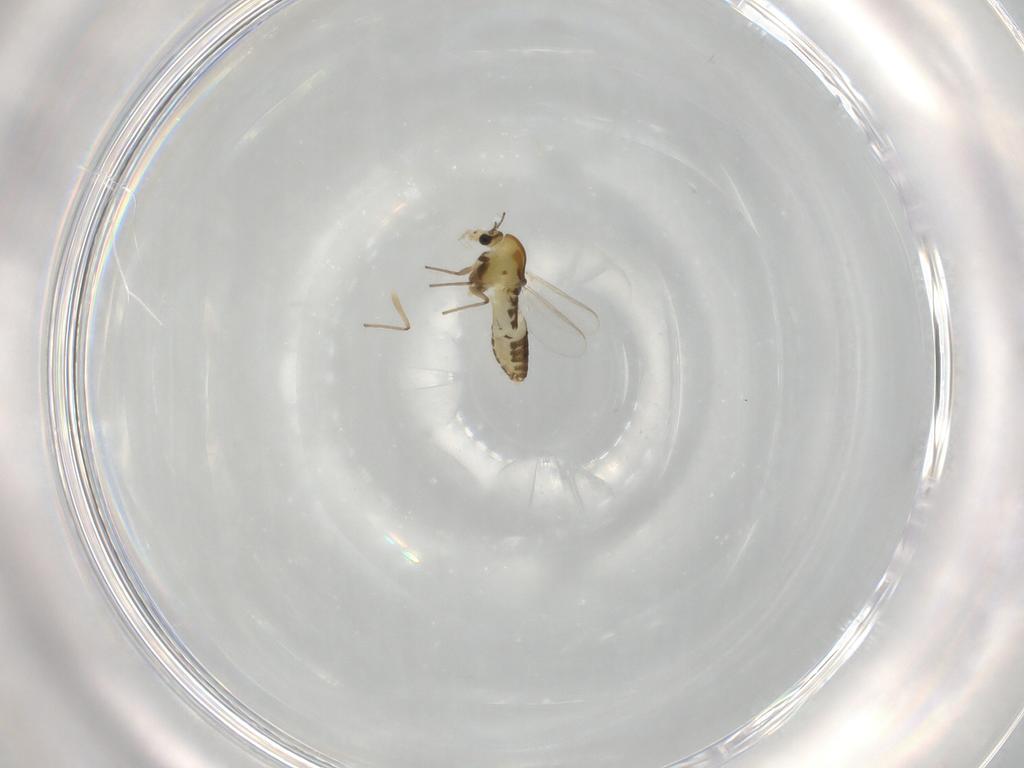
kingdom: Animalia
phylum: Arthropoda
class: Insecta
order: Diptera
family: Chironomidae
